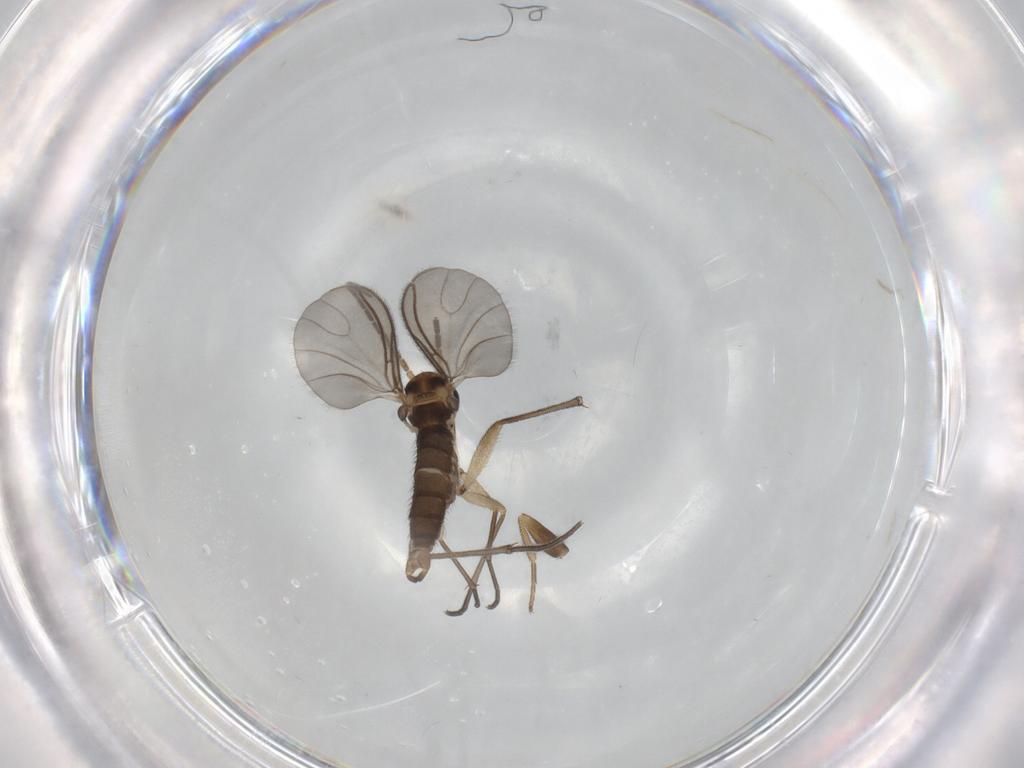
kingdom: Animalia
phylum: Arthropoda
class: Insecta
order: Diptera
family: Sciaridae
